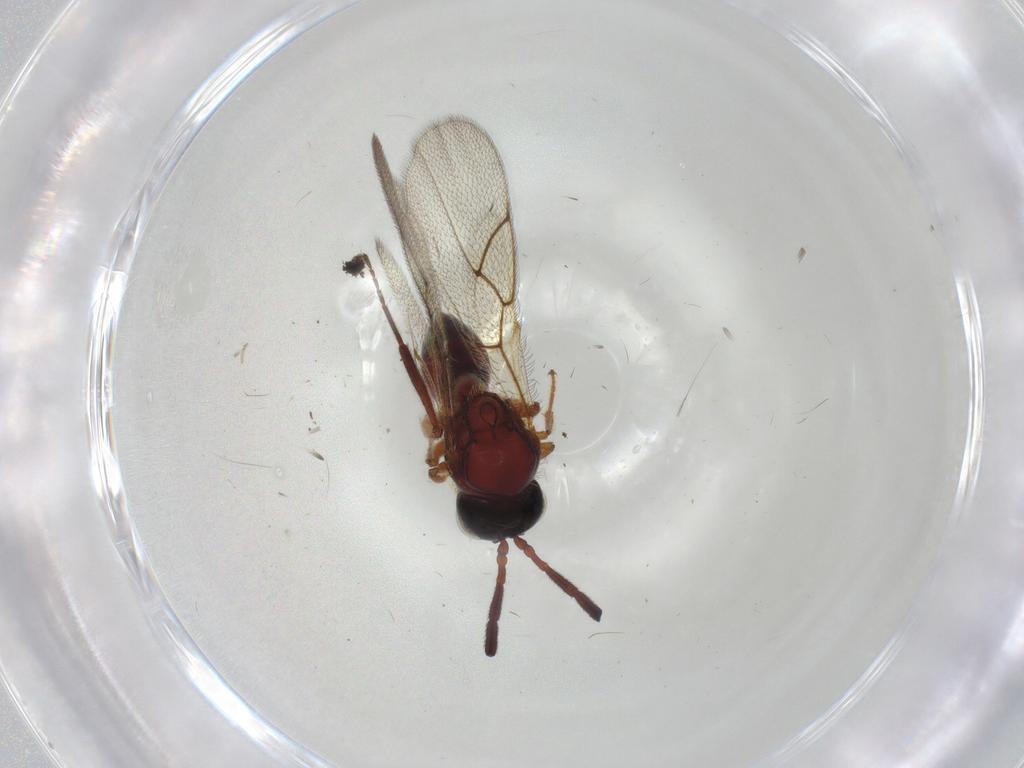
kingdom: Animalia
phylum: Arthropoda
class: Insecta
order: Hymenoptera
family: Figitidae
